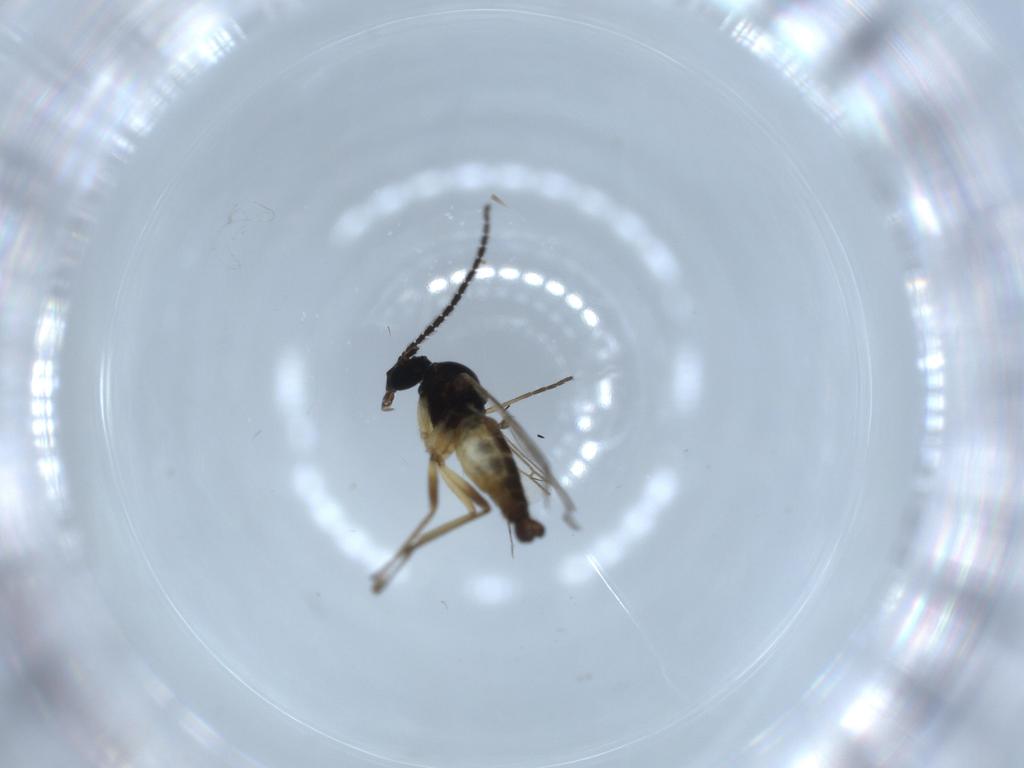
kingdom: Animalia
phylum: Arthropoda
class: Insecta
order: Diptera
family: Sciaridae
